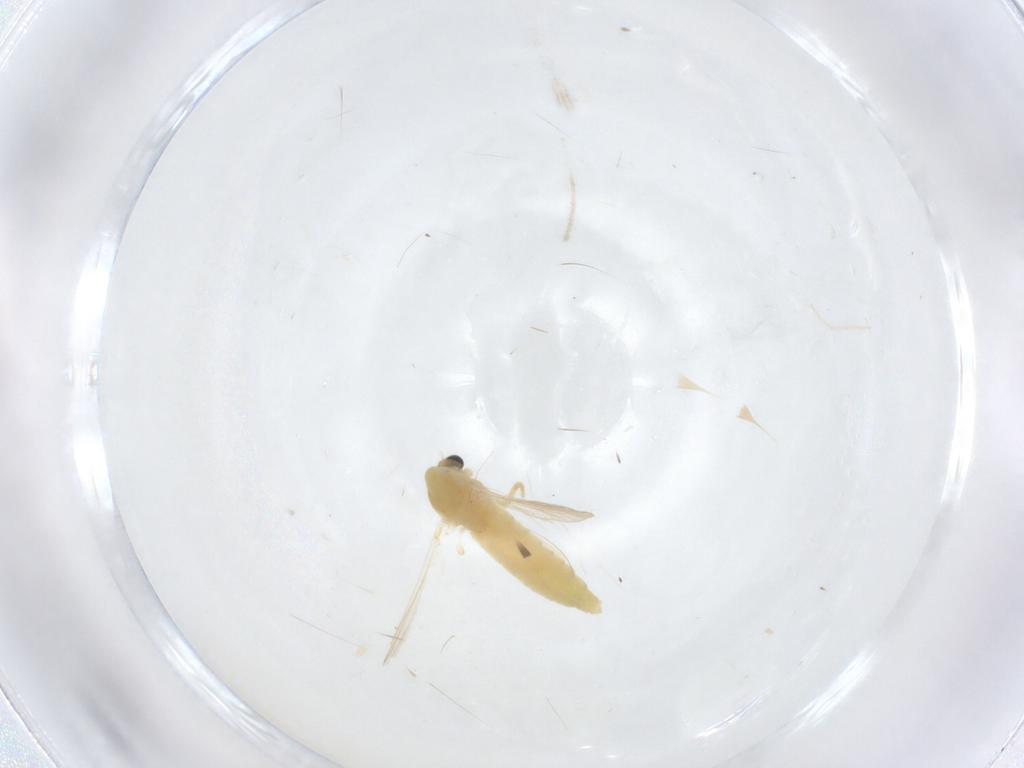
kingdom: Animalia
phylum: Arthropoda
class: Insecta
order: Diptera
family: Chironomidae
